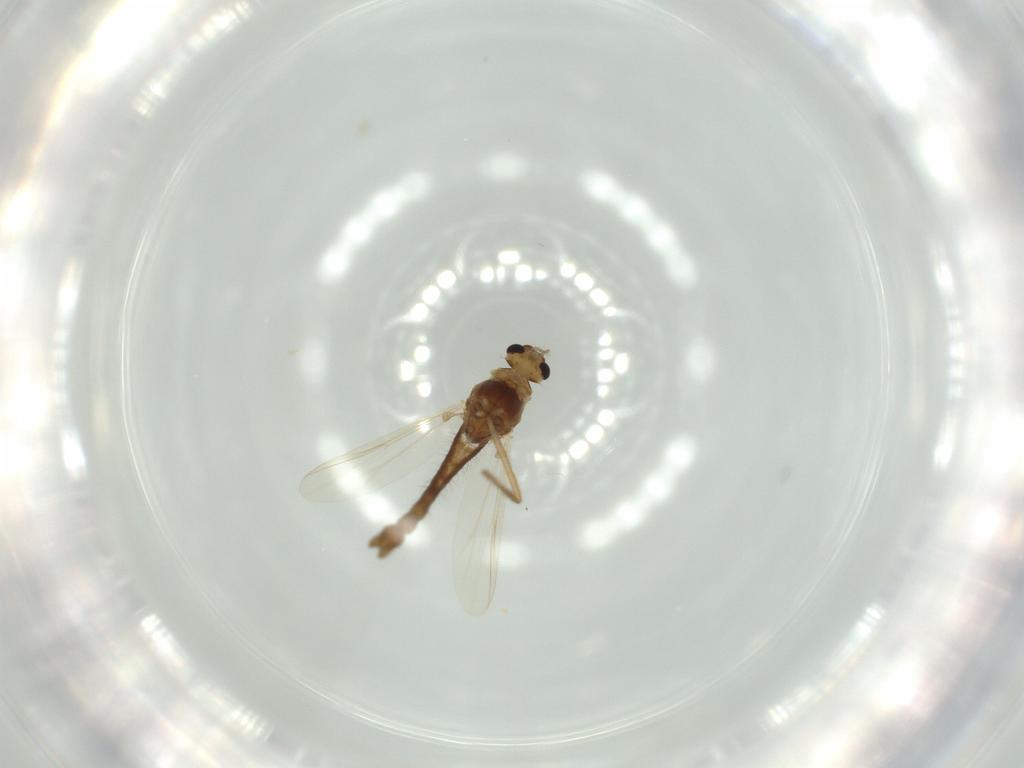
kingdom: Animalia
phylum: Arthropoda
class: Insecta
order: Diptera
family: Chironomidae
